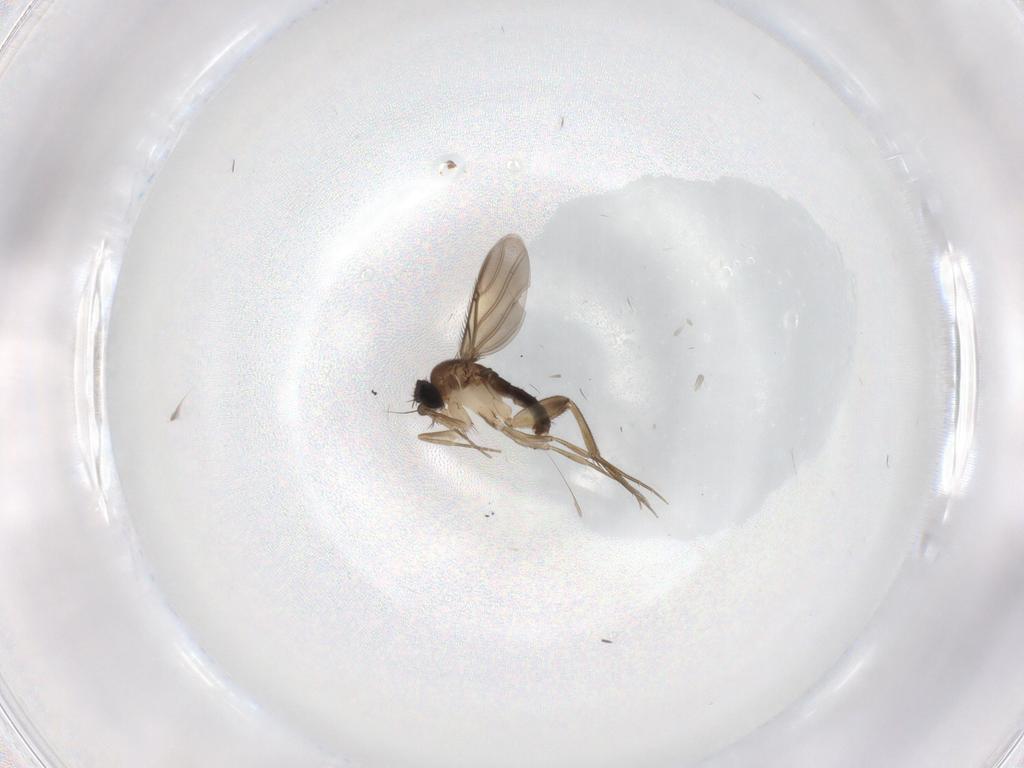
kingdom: Animalia
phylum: Arthropoda
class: Insecta
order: Diptera
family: Phoridae
